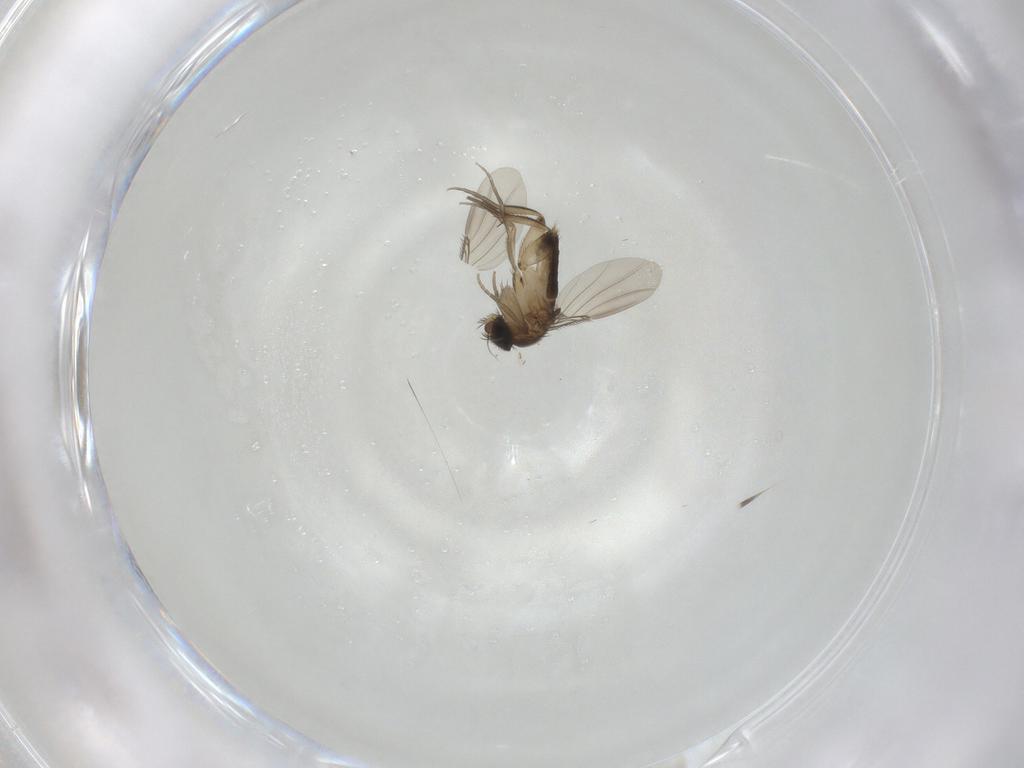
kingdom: Animalia
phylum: Arthropoda
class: Insecta
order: Diptera
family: Phoridae
